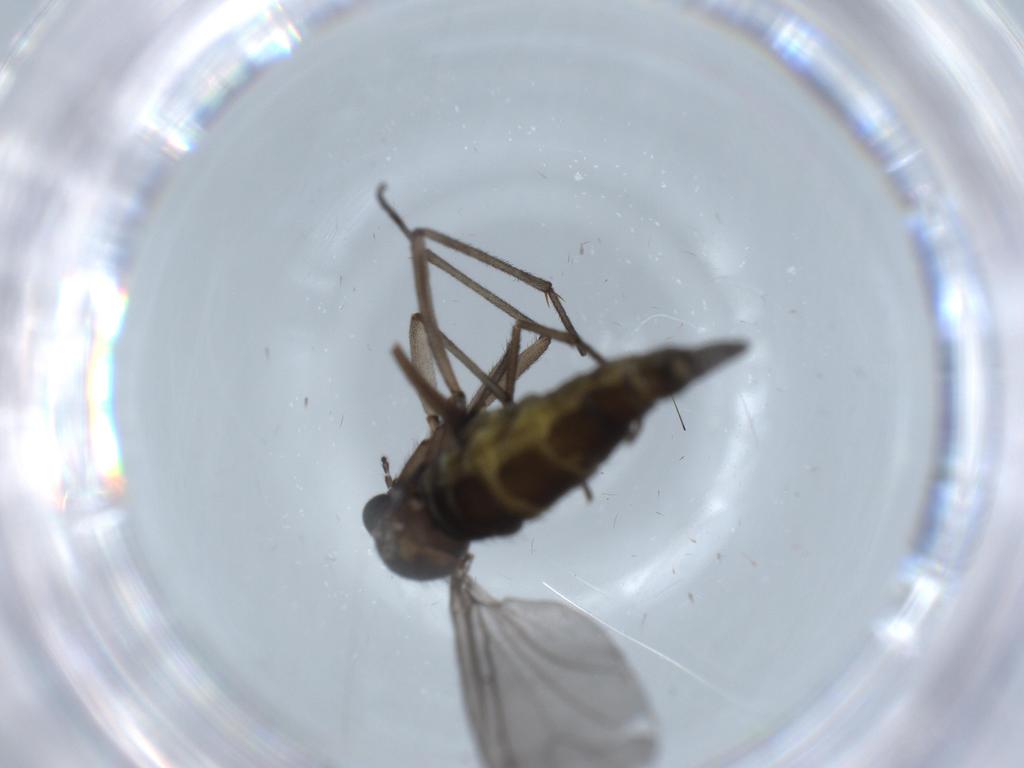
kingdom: Animalia
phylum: Arthropoda
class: Insecta
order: Diptera
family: Sciaridae
